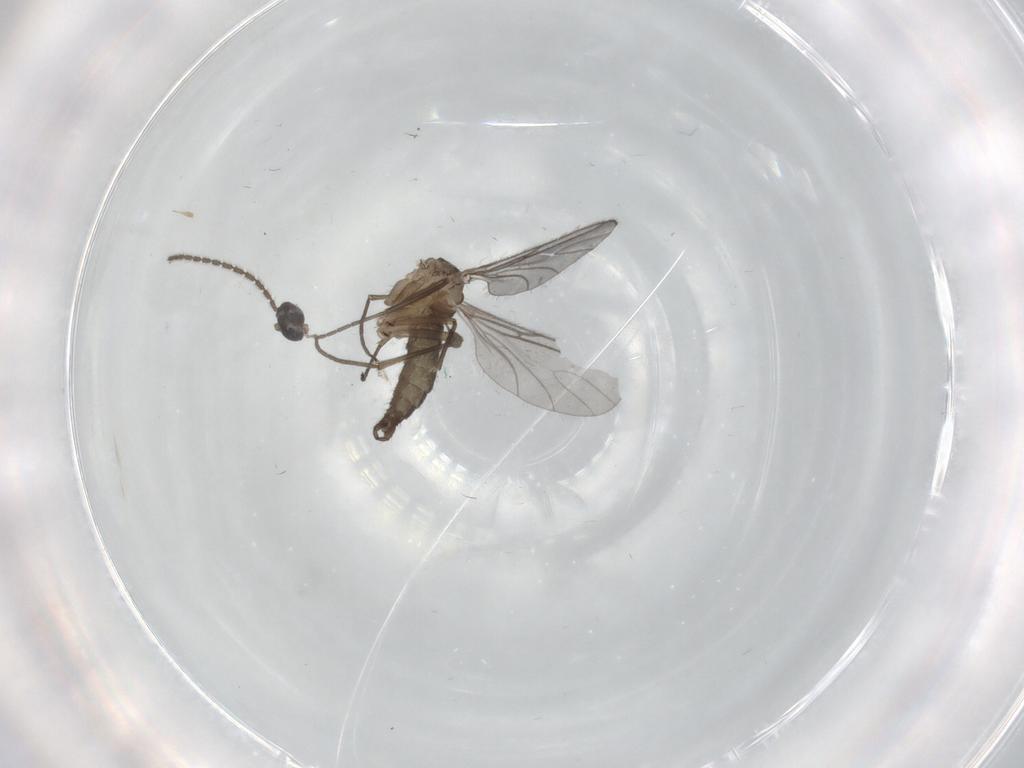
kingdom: Animalia
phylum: Arthropoda
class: Insecta
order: Diptera
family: Sciaridae
